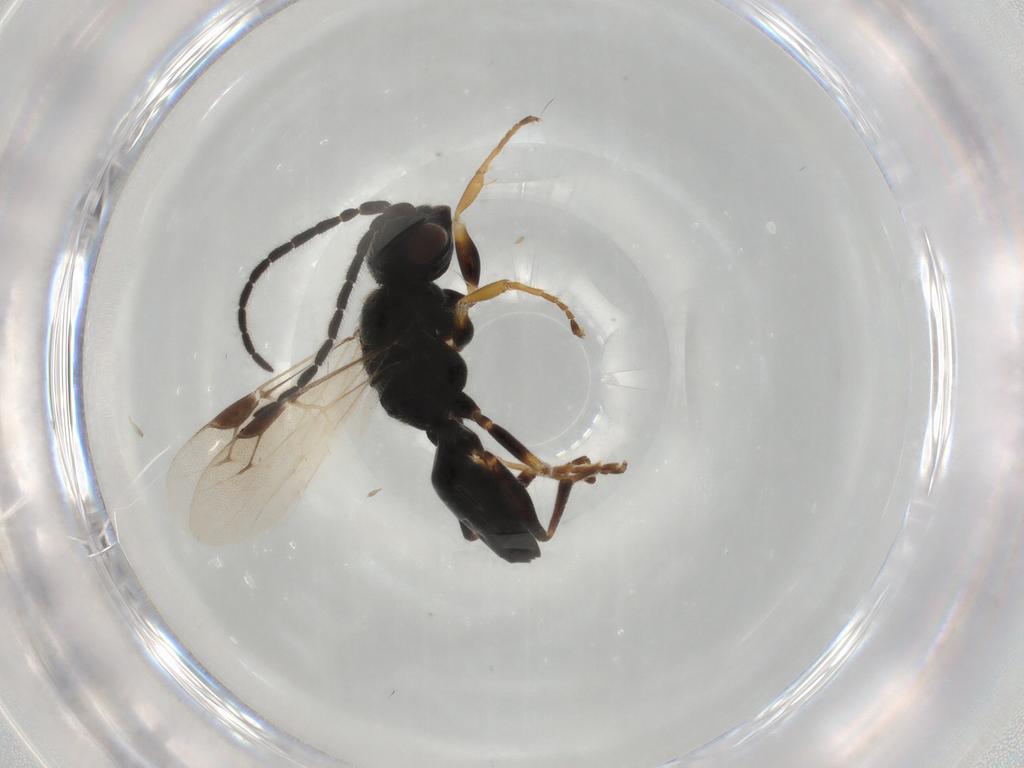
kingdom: Animalia
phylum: Arthropoda
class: Insecta
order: Hymenoptera
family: Dryinidae
